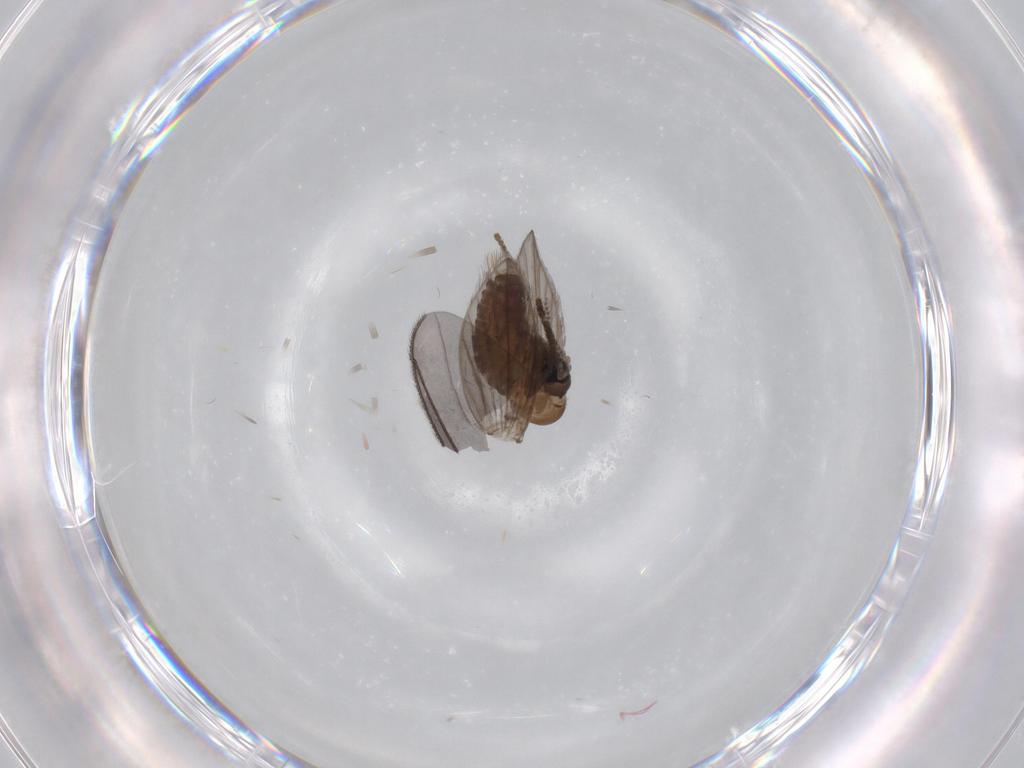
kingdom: Animalia
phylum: Arthropoda
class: Insecta
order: Diptera
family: Psychodidae
